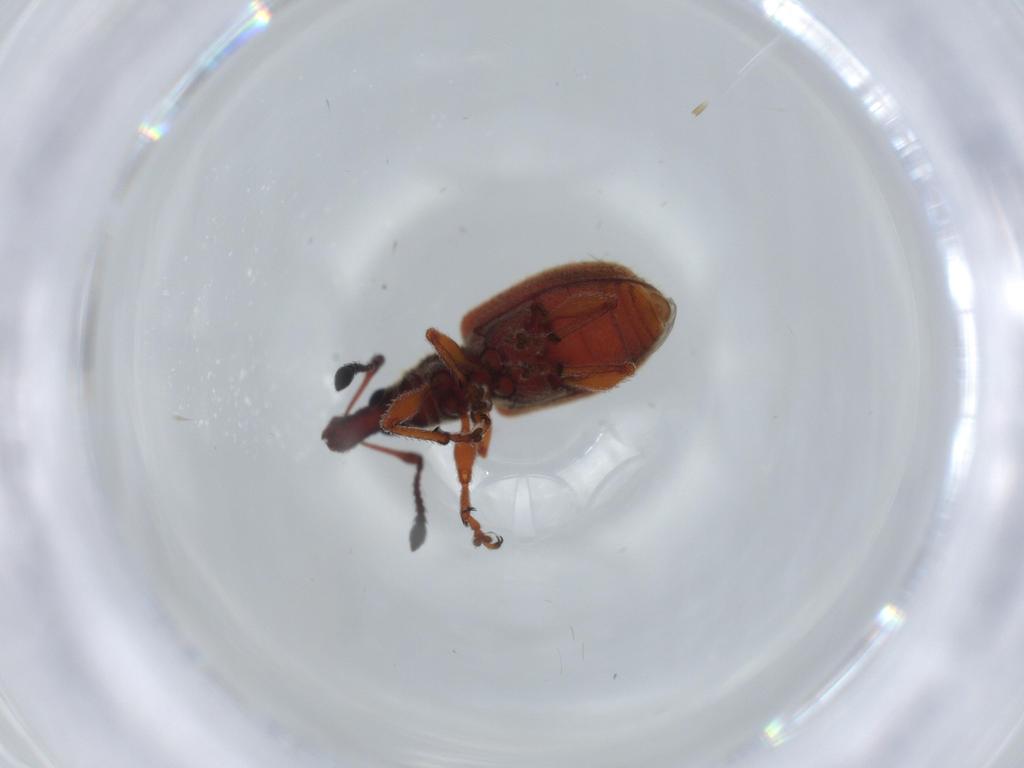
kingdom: Animalia
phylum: Arthropoda
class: Insecta
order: Coleoptera
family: Curculionidae
